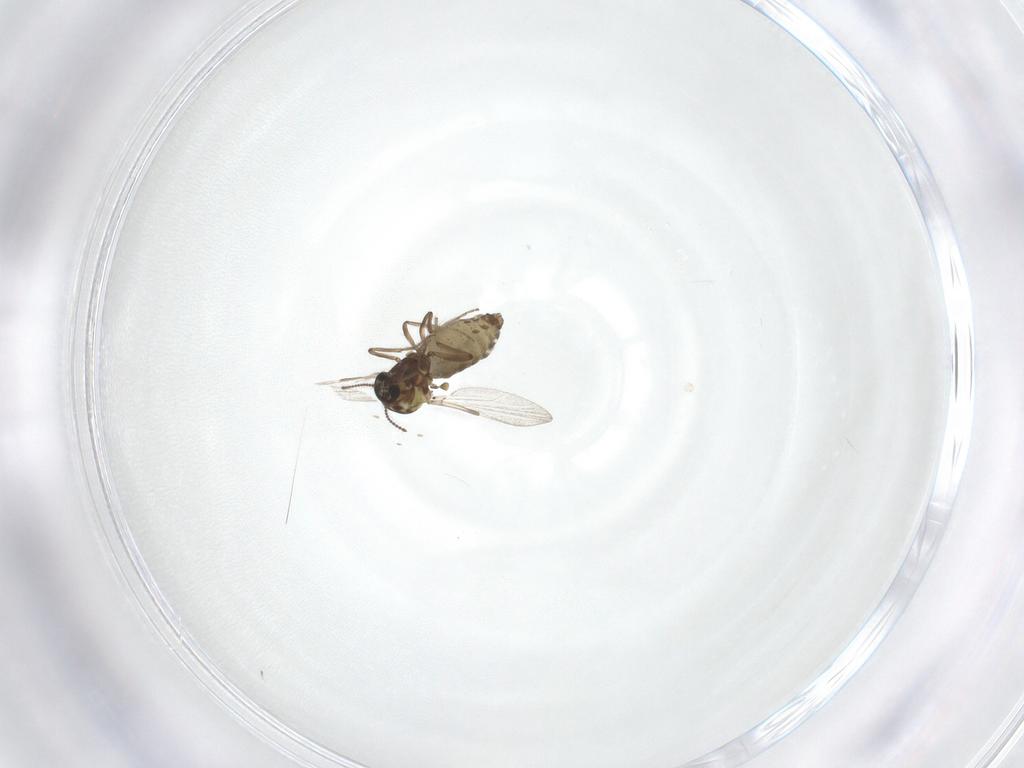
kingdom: Animalia
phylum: Arthropoda
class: Insecta
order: Diptera
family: Ceratopogonidae
